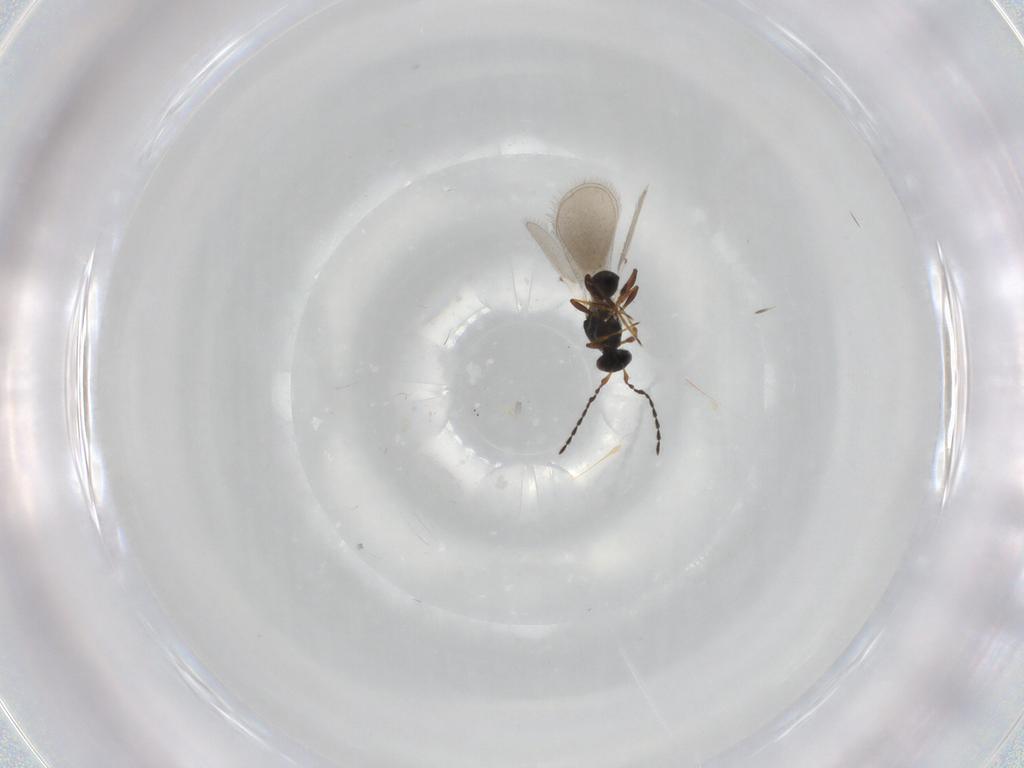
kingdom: Animalia
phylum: Arthropoda
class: Insecta
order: Hymenoptera
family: Platygastridae
